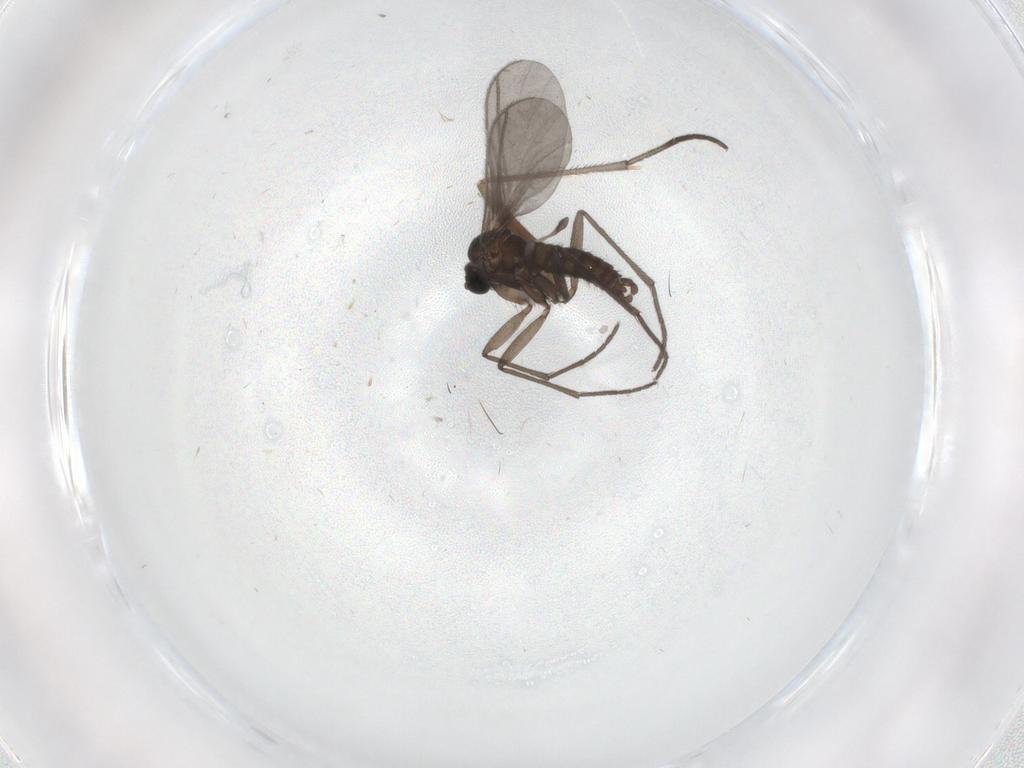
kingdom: Animalia
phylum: Arthropoda
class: Insecta
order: Diptera
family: Sciaridae
